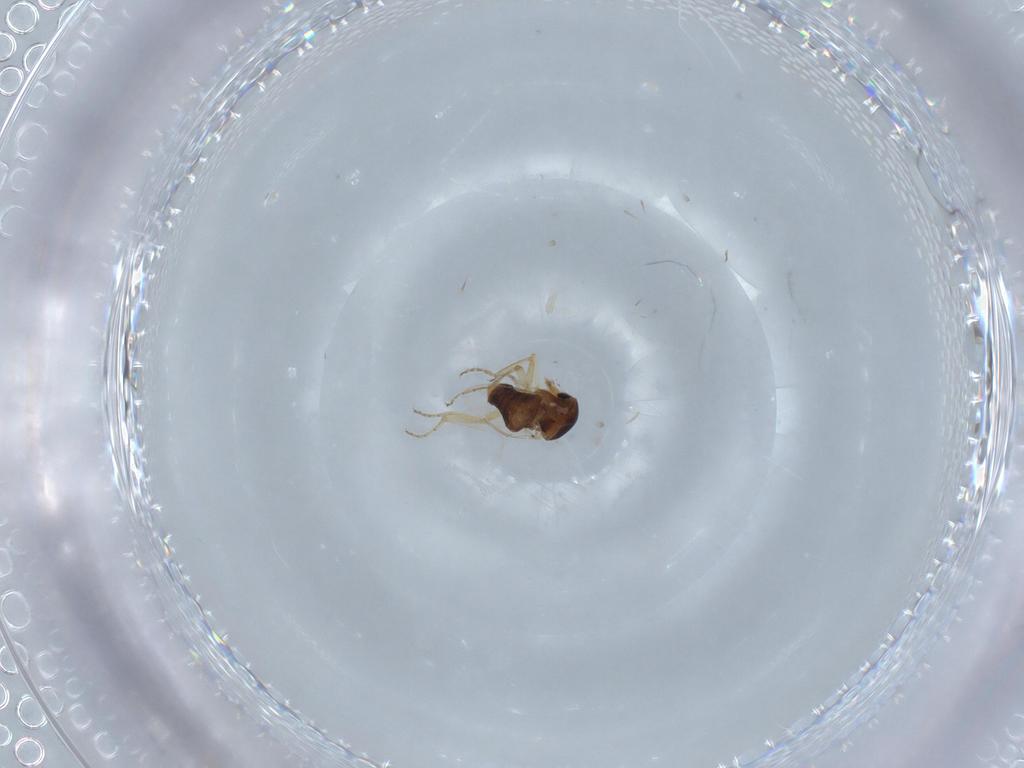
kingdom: Animalia
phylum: Arthropoda
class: Insecta
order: Diptera
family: Ceratopogonidae
